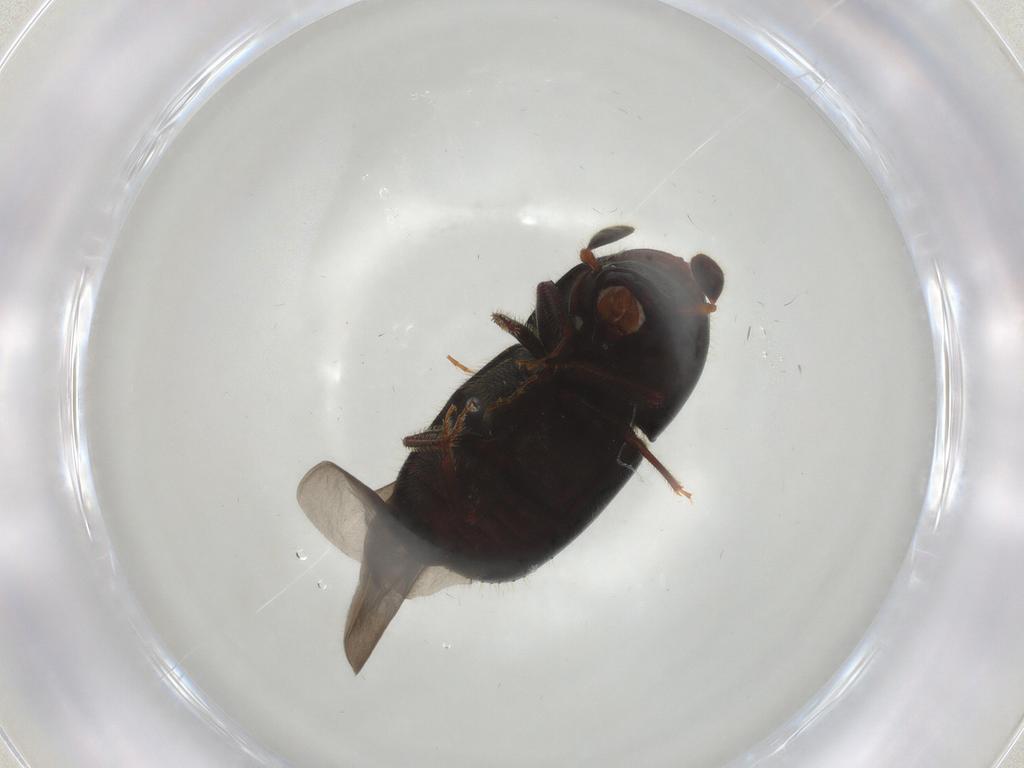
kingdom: Animalia
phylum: Arthropoda
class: Insecta
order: Coleoptera
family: Curculionidae
